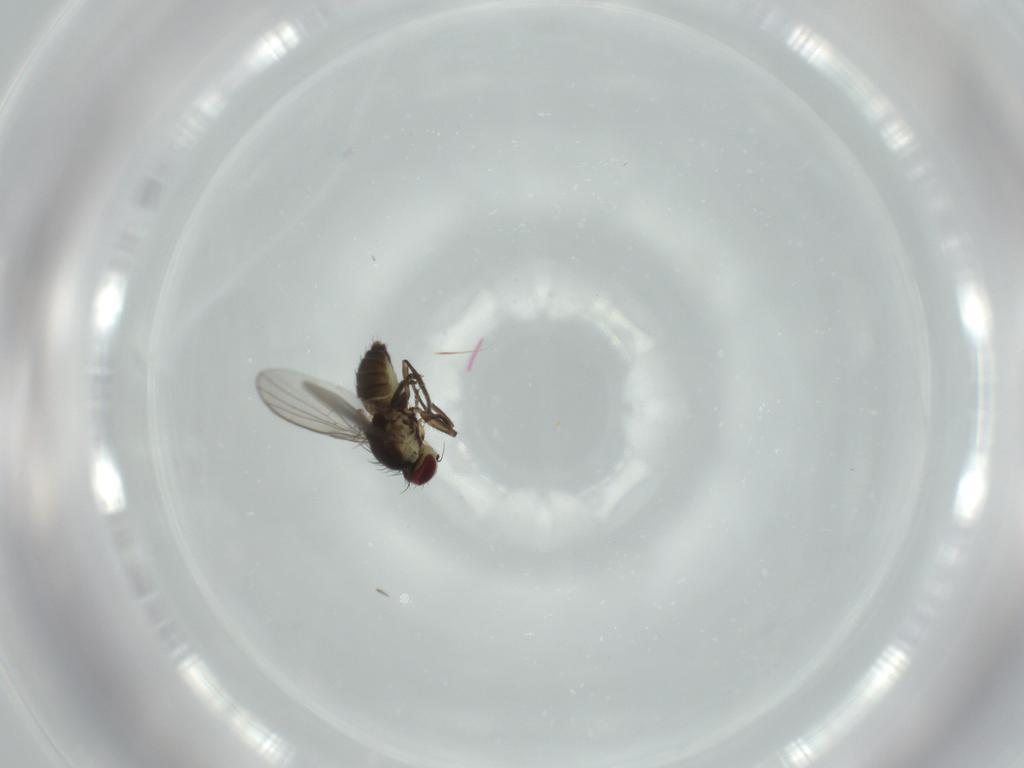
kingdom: Animalia
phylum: Arthropoda
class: Insecta
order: Diptera
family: Agromyzidae
